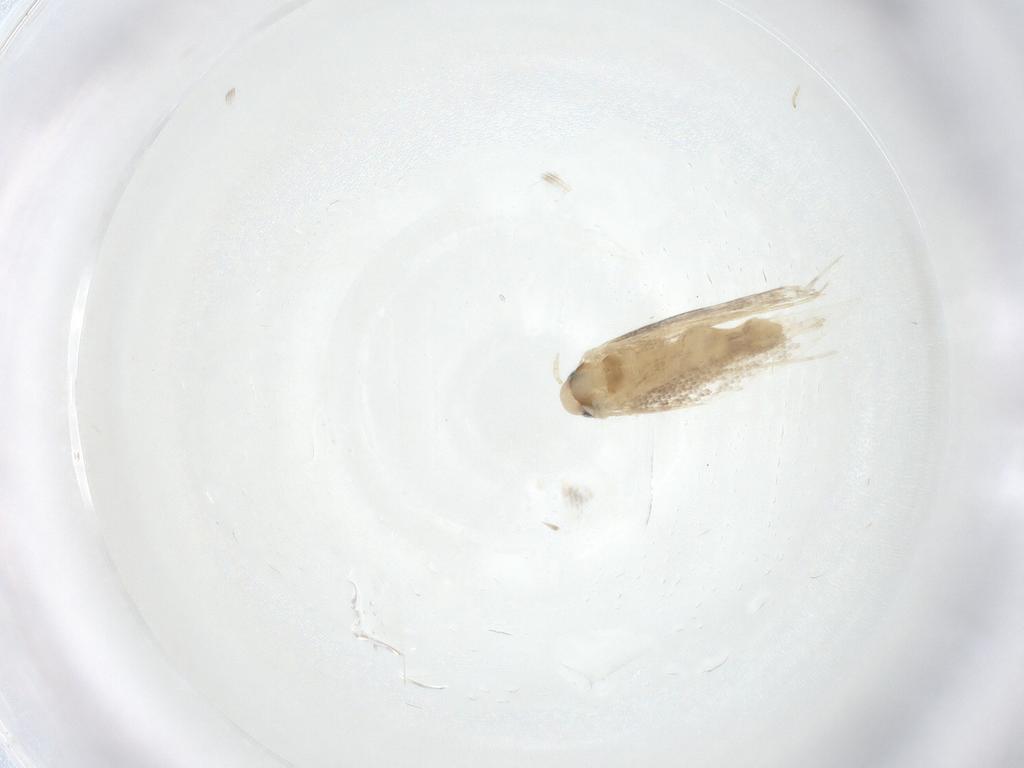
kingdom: Animalia
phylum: Arthropoda
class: Insecta
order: Lepidoptera
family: Gracillariidae
